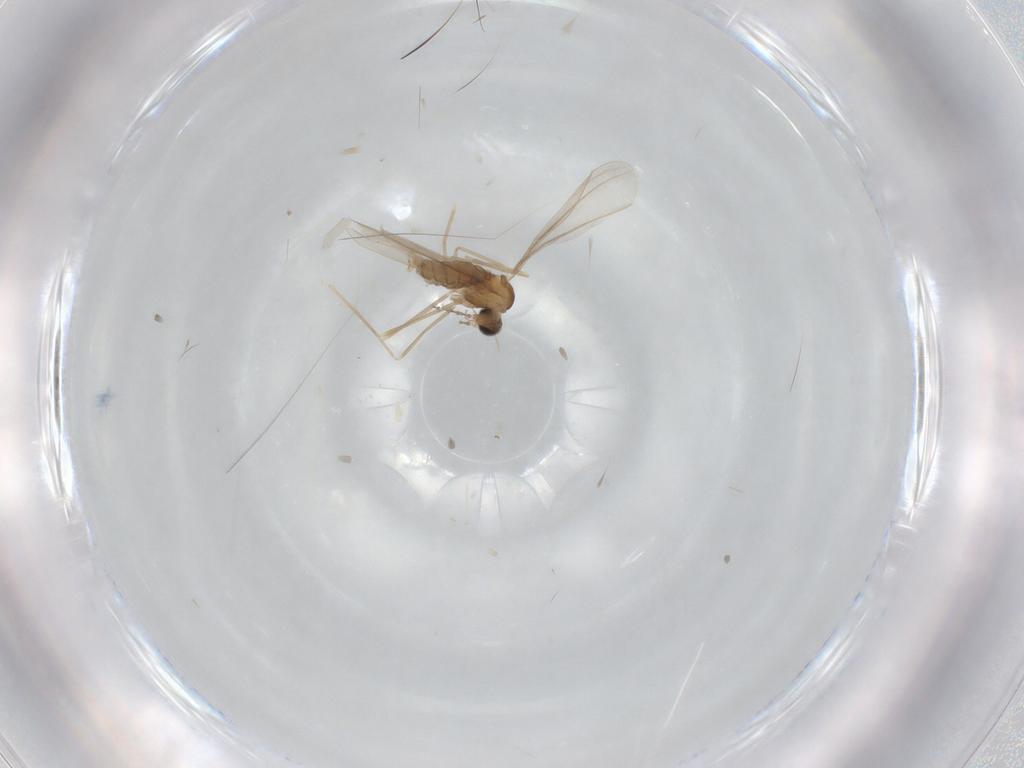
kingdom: Animalia
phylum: Arthropoda
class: Insecta
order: Diptera
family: Cecidomyiidae
